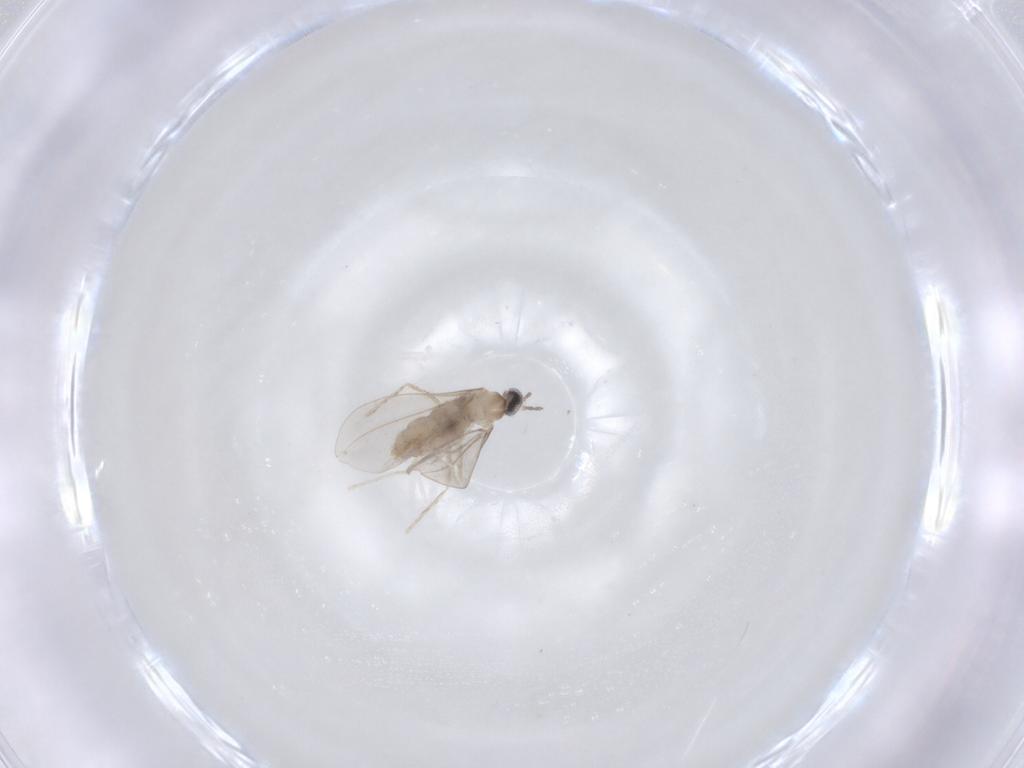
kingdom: Animalia
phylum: Arthropoda
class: Insecta
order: Diptera
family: Cecidomyiidae
